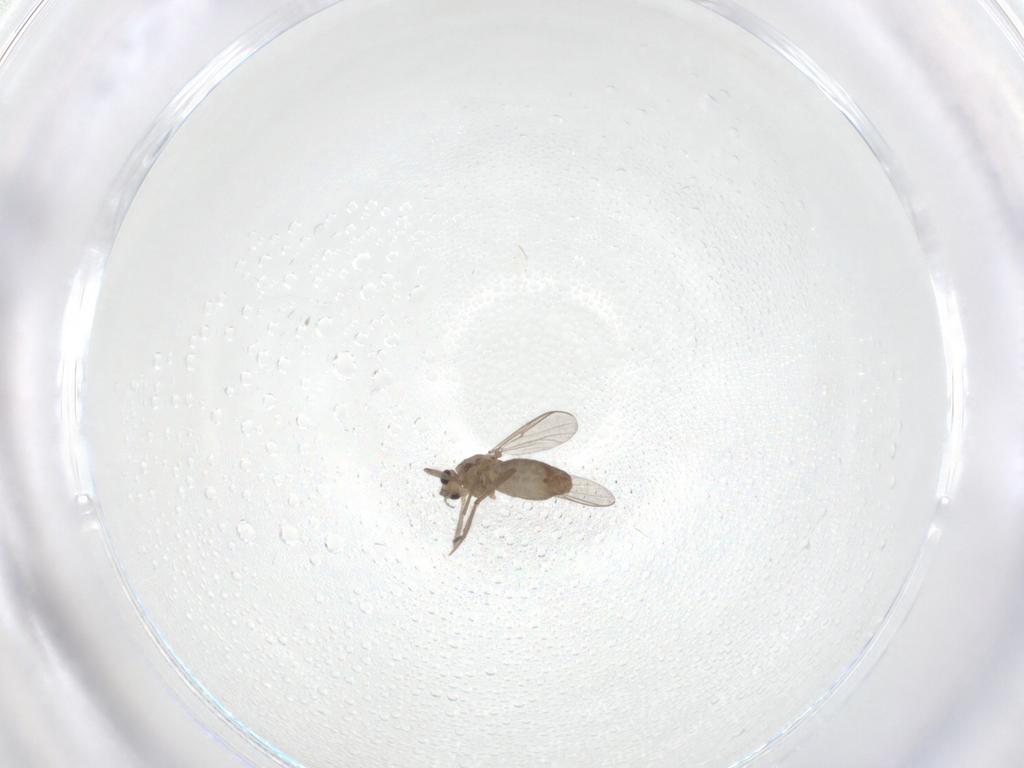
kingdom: Animalia
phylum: Arthropoda
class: Insecta
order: Diptera
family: Chironomidae
